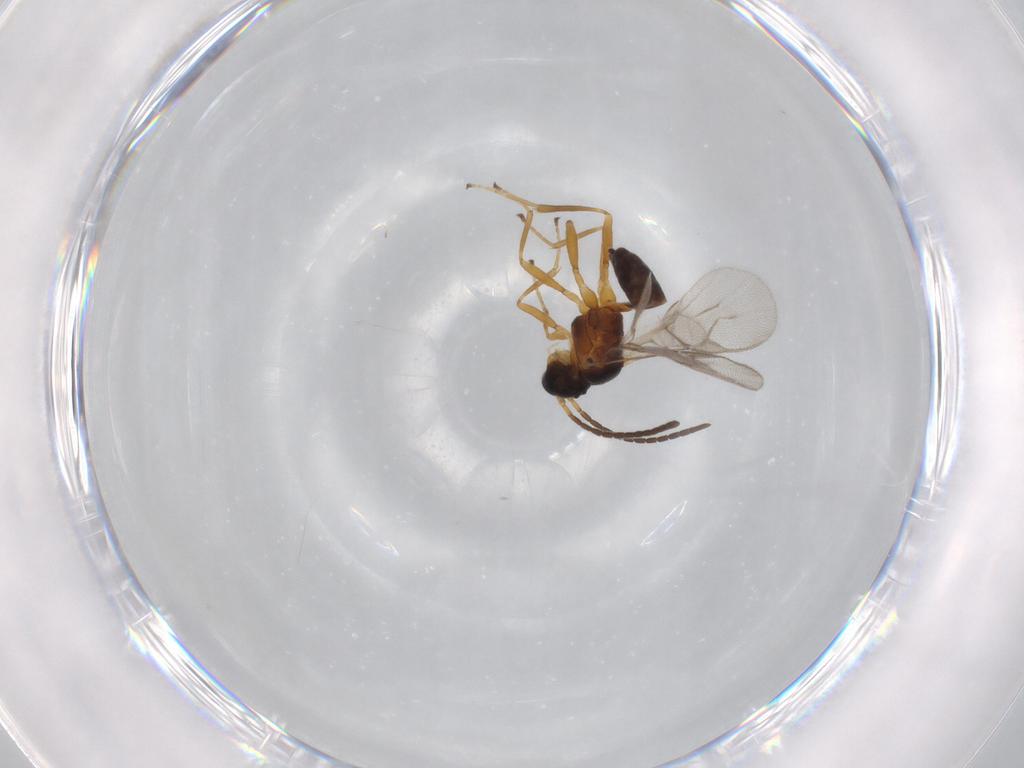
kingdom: Animalia
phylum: Arthropoda
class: Insecta
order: Hymenoptera
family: Braconidae
